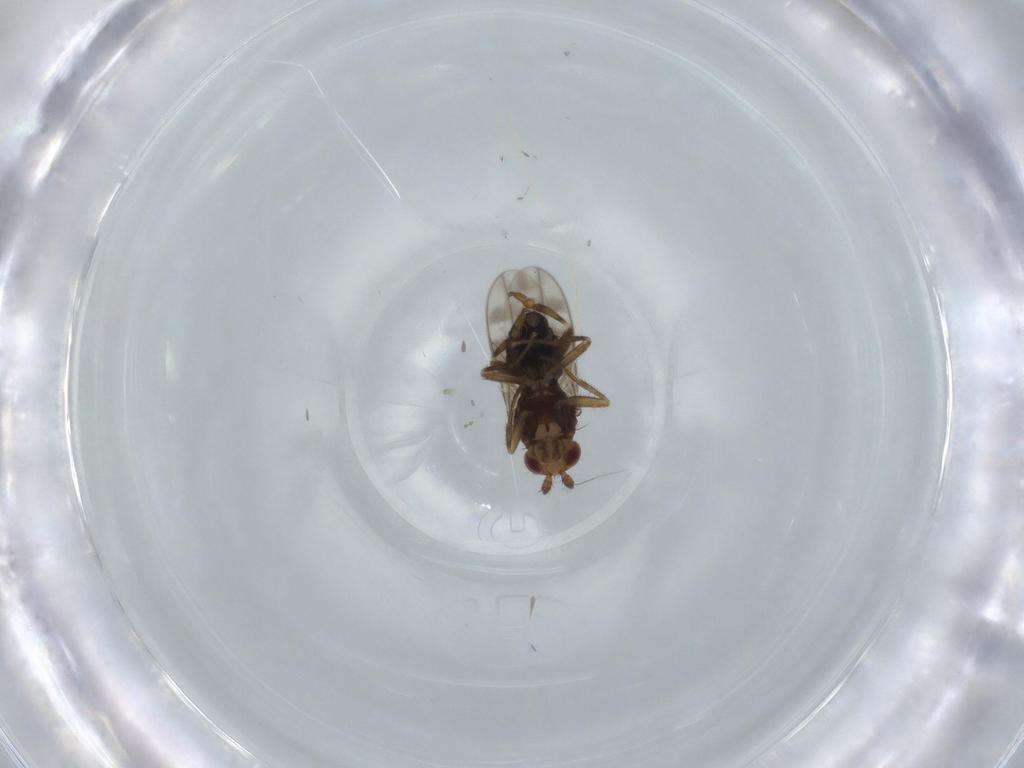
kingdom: Animalia
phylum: Arthropoda
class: Insecta
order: Diptera
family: Sphaeroceridae
